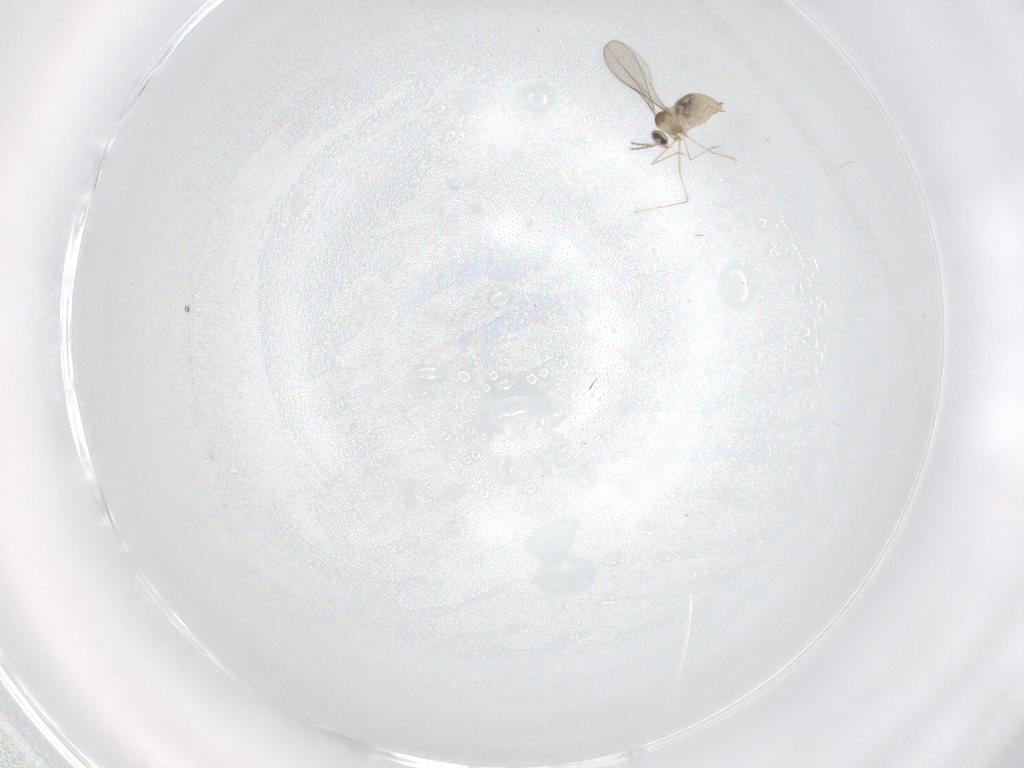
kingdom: Animalia
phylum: Arthropoda
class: Insecta
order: Diptera
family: Cecidomyiidae
